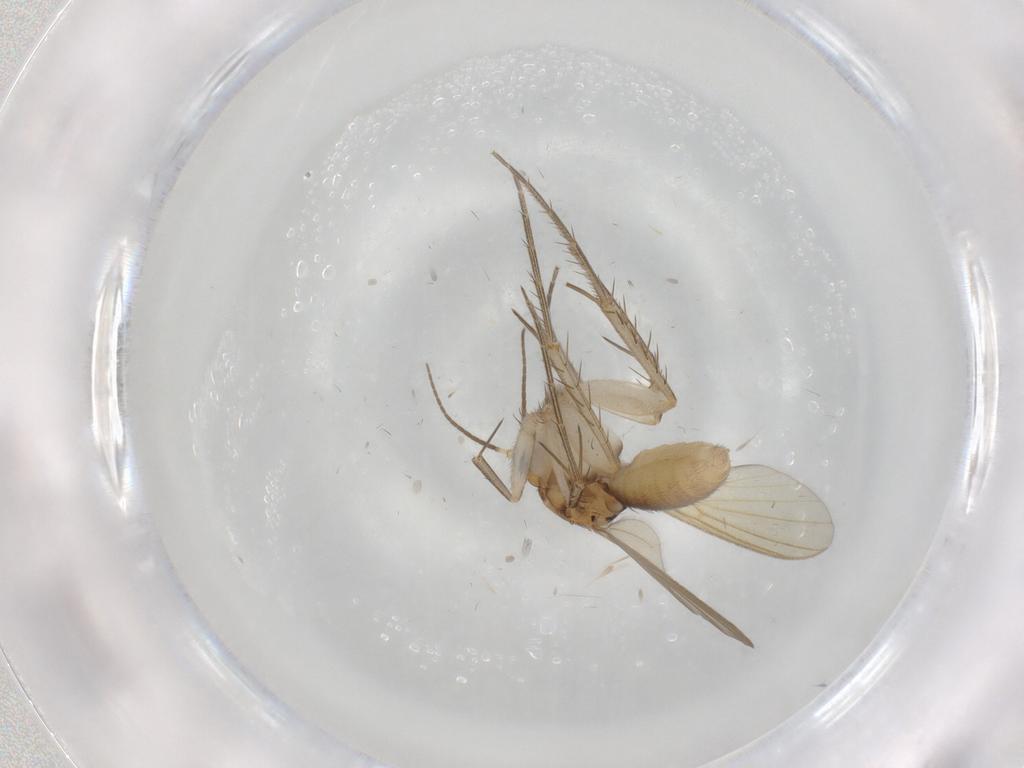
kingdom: Animalia
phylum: Arthropoda
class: Insecta
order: Diptera
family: Mycetophilidae
